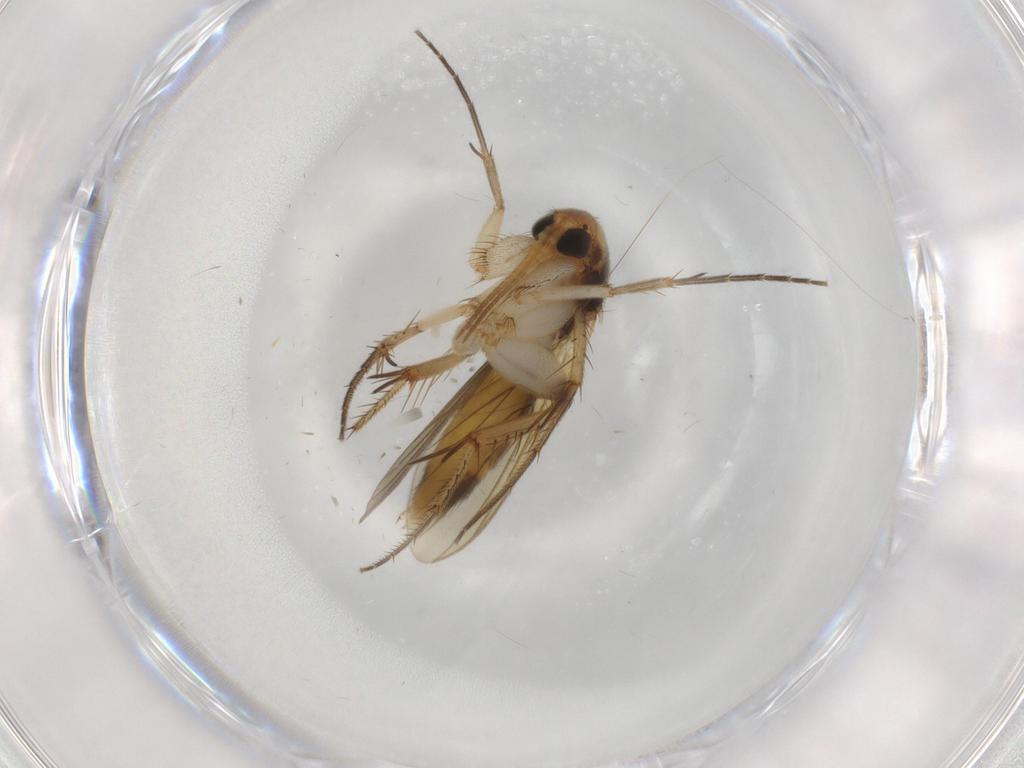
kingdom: Animalia
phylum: Arthropoda
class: Insecta
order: Diptera
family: Mycetophilidae
